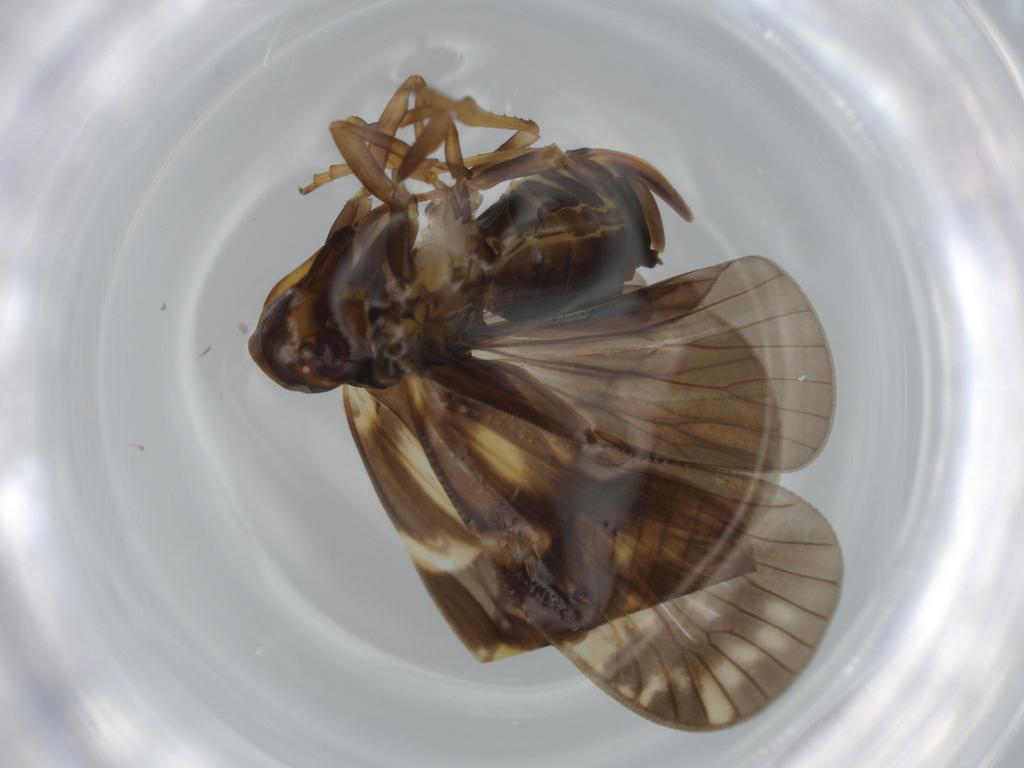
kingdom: Animalia
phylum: Arthropoda
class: Insecta
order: Hemiptera
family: Cixiidae
